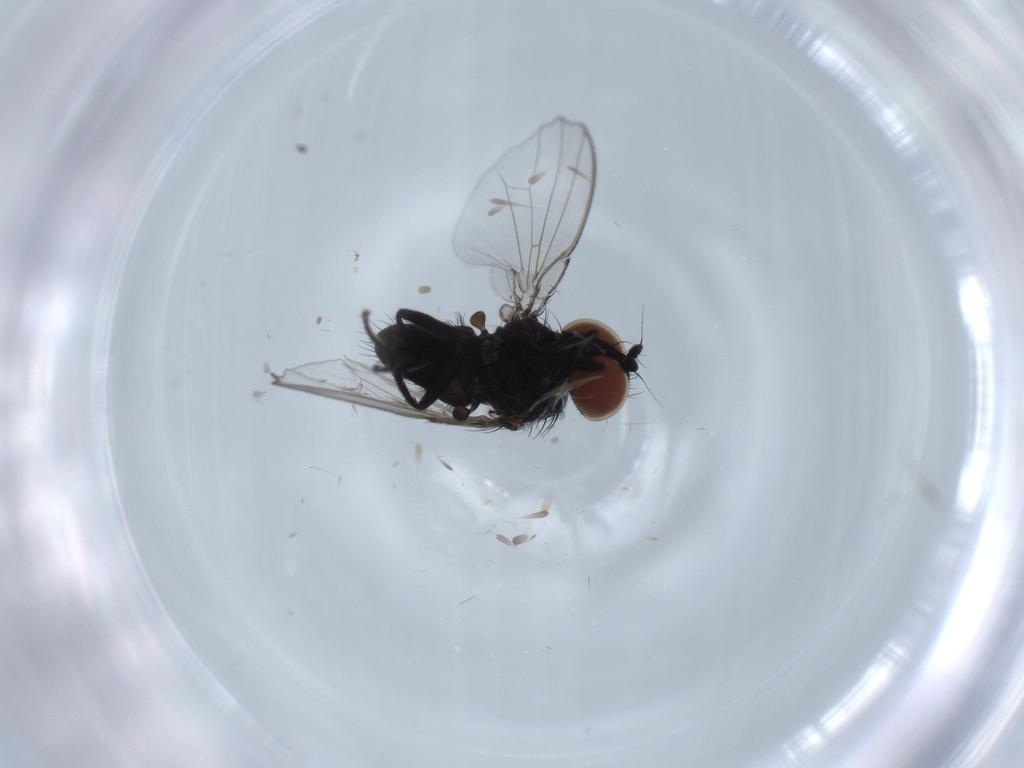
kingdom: Animalia
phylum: Arthropoda
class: Insecta
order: Diptera
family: Milichiidae
